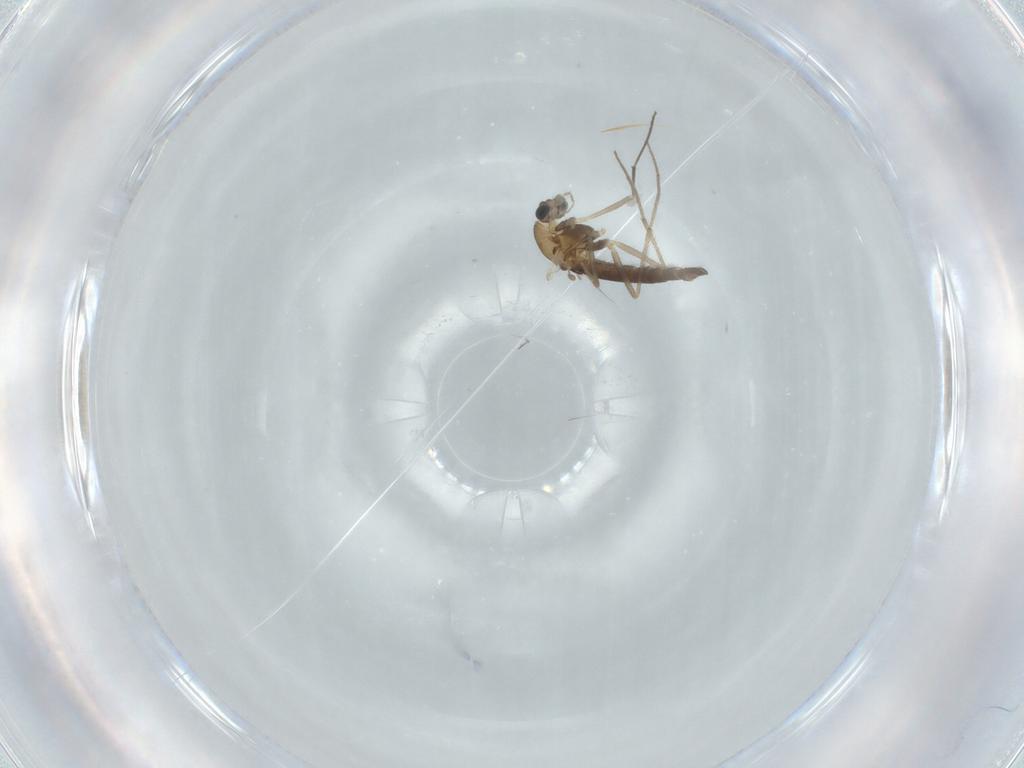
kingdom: Animalia
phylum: Arthropoda
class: Insecta
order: Diptera
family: Chironomidae
